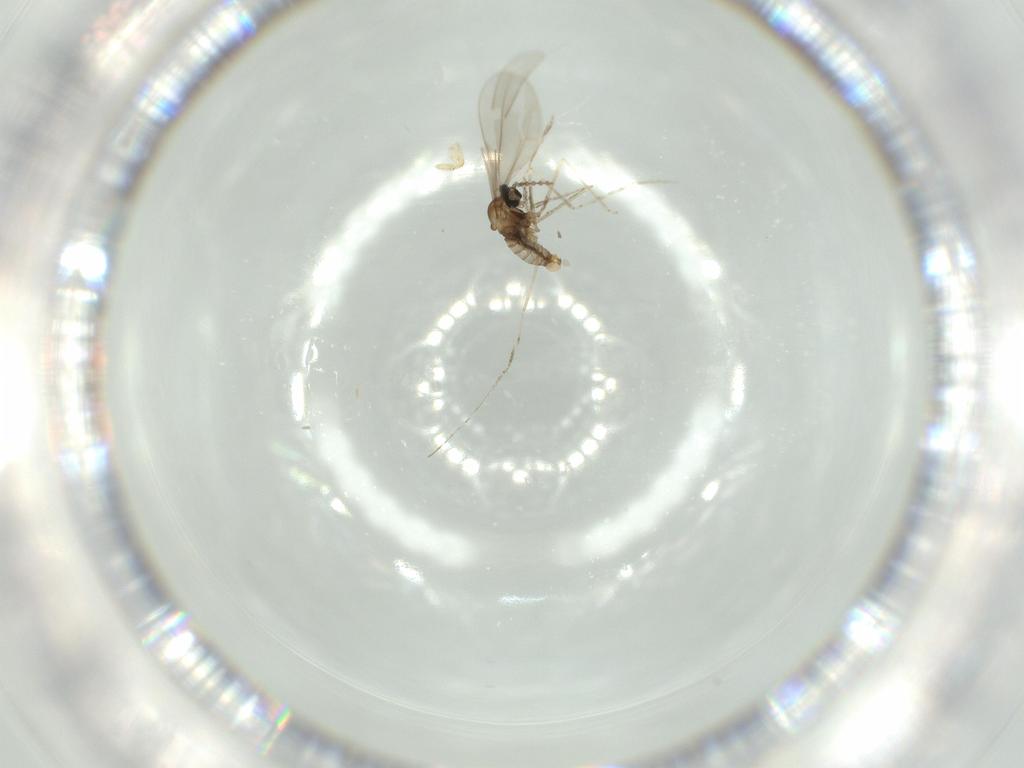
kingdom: Animalia
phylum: Arthropoda
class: Insecta
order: Diptera
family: Cecidomyiidae
